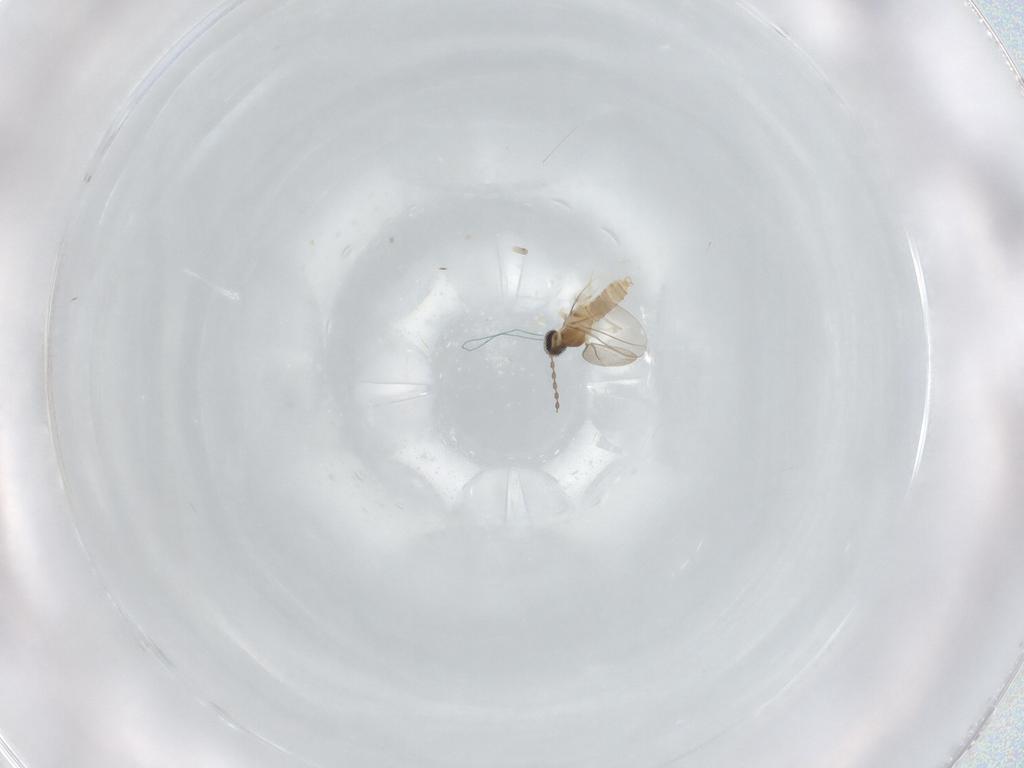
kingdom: Animalia
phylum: Arthropoda
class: Insecta
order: Diptera
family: Cecidomyiidae
